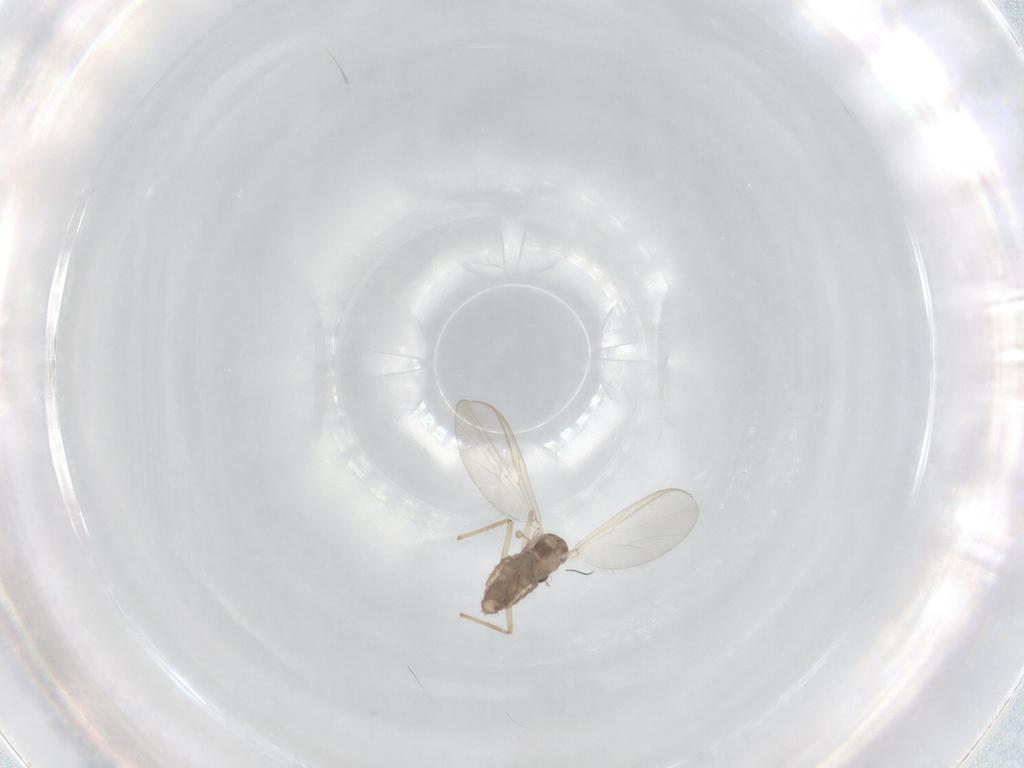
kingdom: Animalia
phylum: Arthropoda
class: Insecta
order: Diptera
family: Chironomidae
